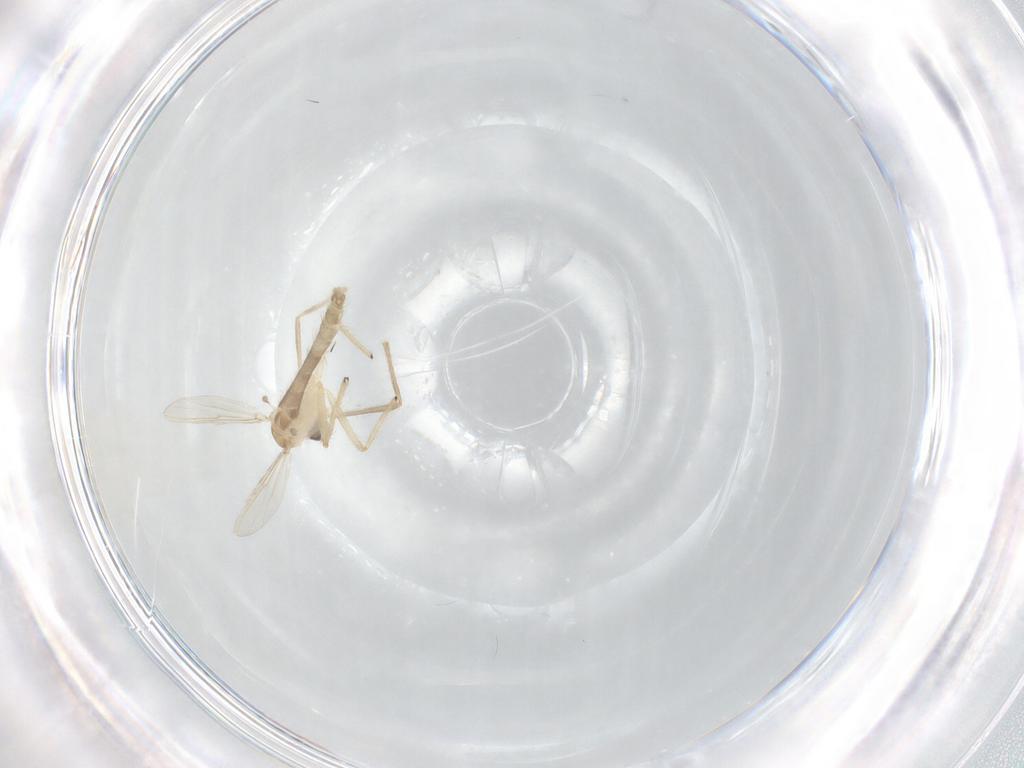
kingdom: Animalia
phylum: Arthropoda
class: Insecta
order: Diptera
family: Chironomidae
